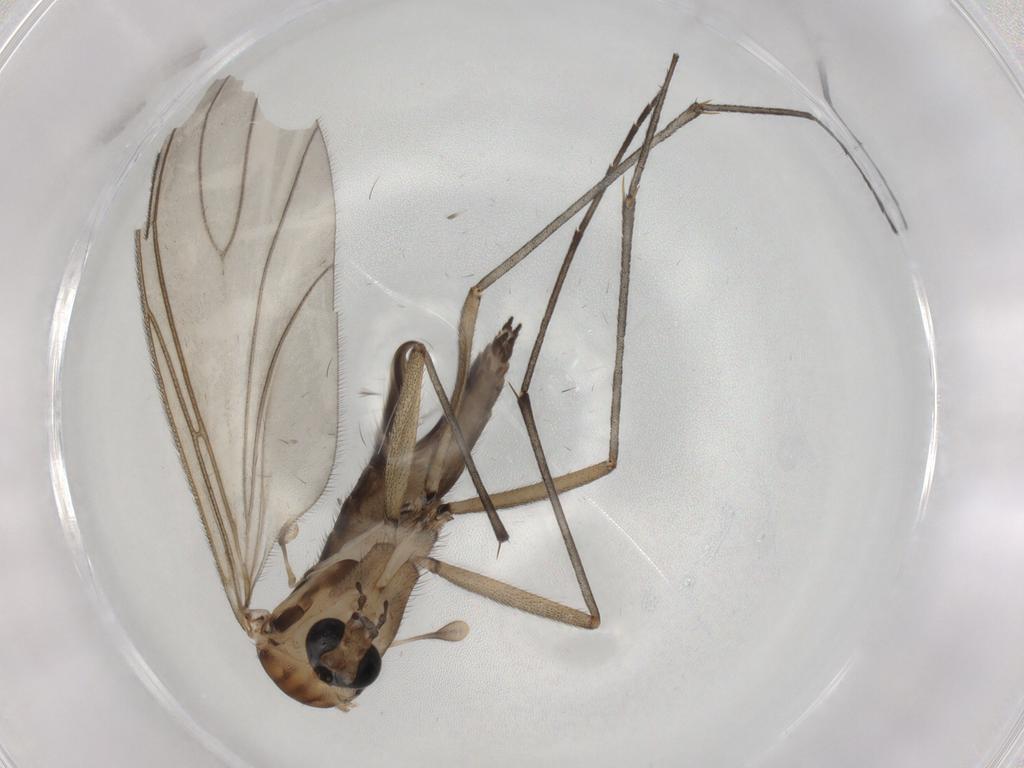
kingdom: Animalia
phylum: Arthropoda
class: Insecta
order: Diptera
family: Sciaridae
